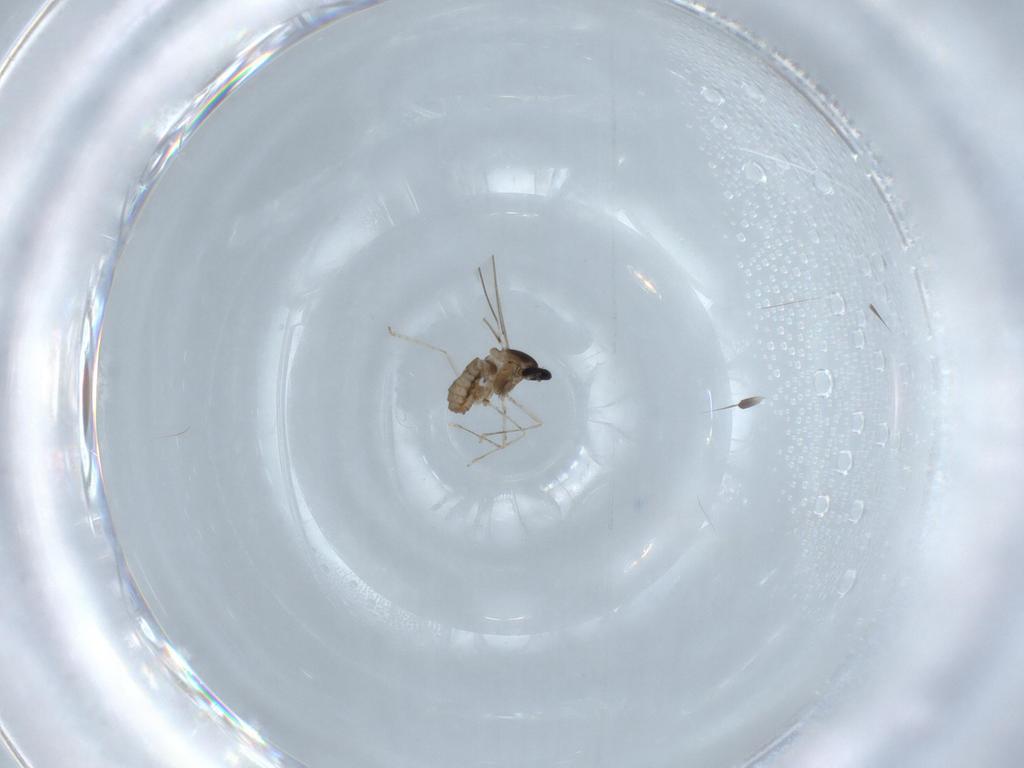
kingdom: Animalia
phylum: Arthropoda
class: Insecta
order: Diptera
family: Cecidomyiidae
